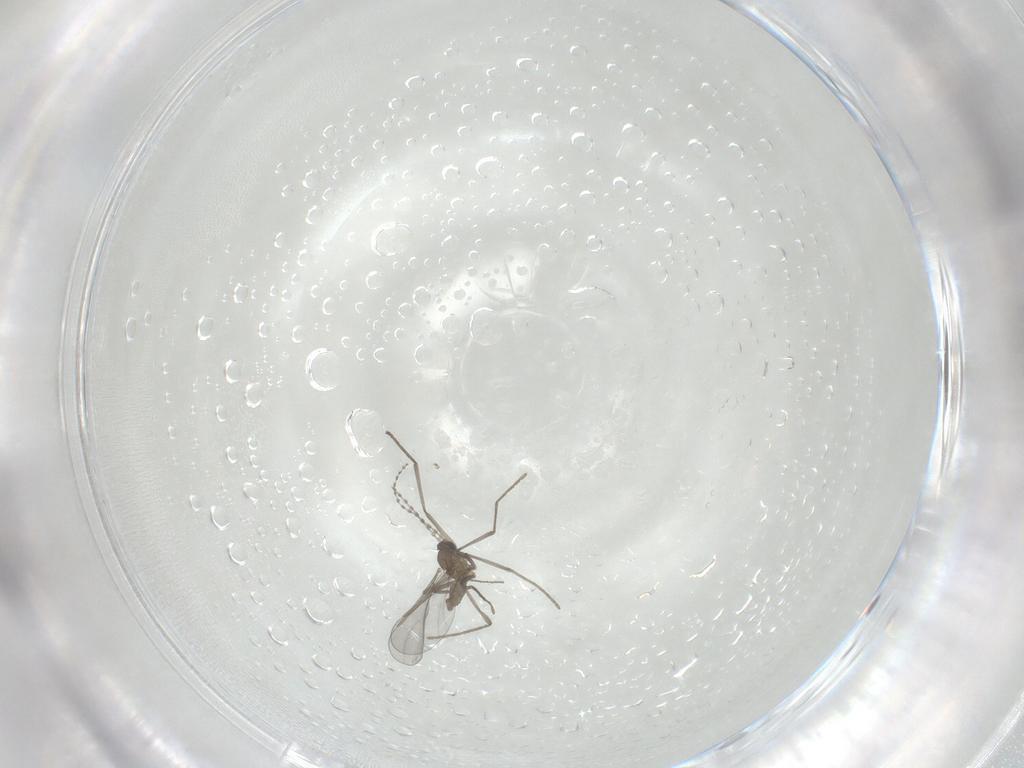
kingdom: Animalia
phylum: Arthropoda
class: Insecta
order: Diptera
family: Cecidomyiidae
